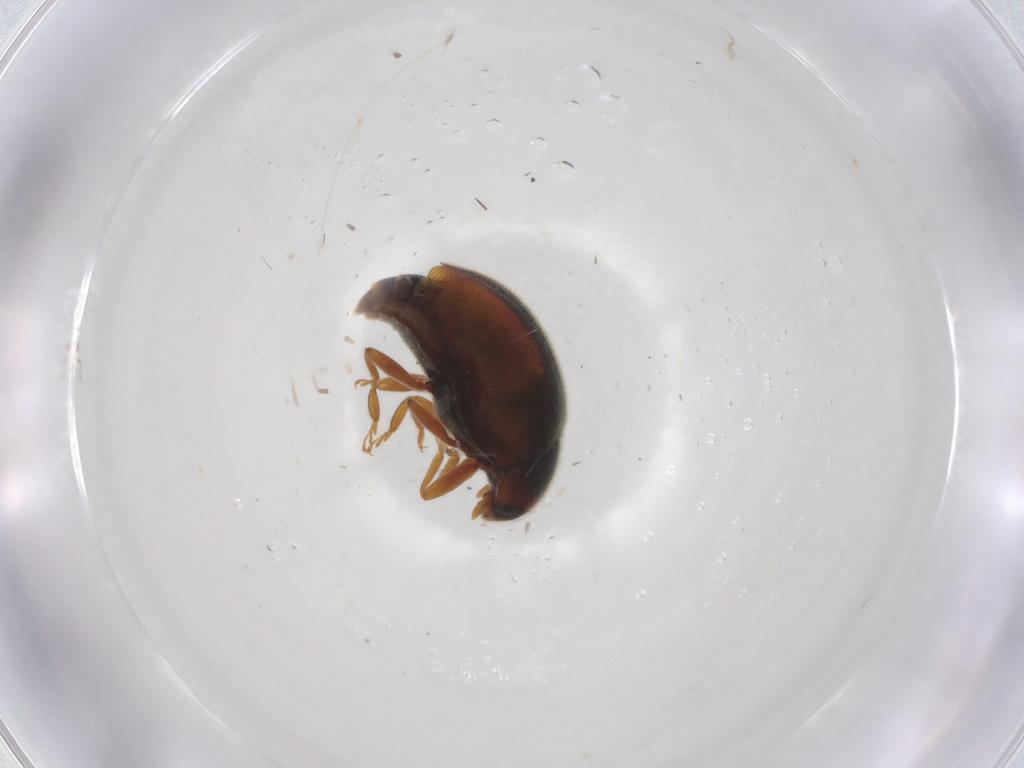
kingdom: Animalia
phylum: Arthropoda
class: Insecta
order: Coleoptera
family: Coccinellidae
